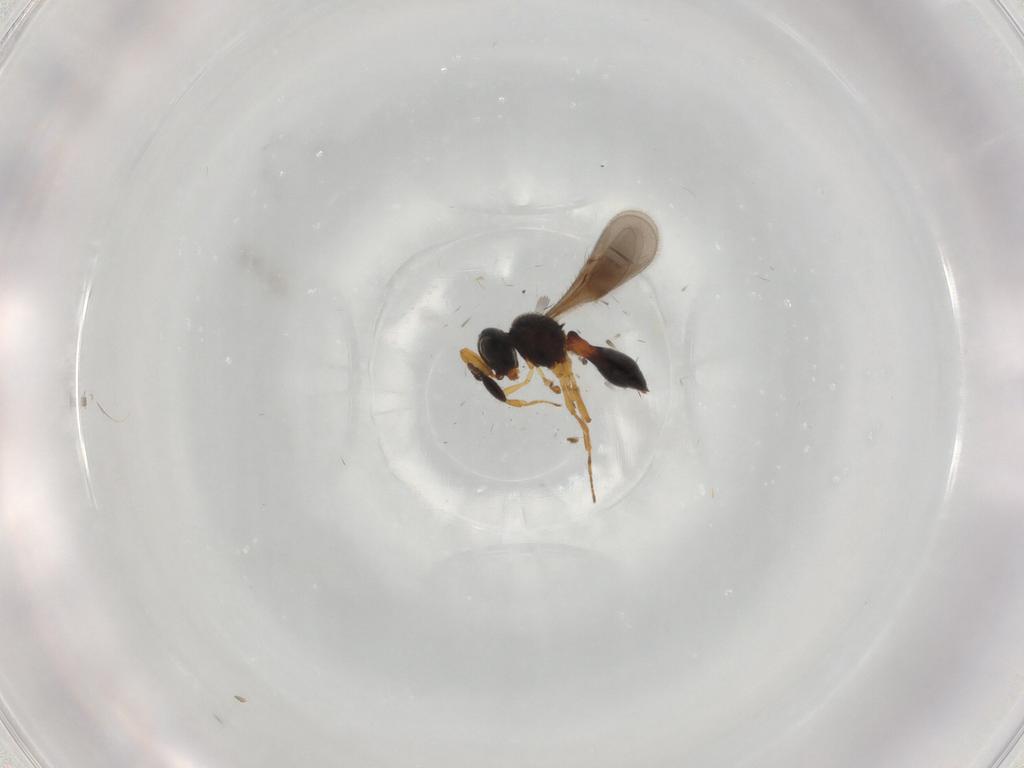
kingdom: Animalia
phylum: Arthropoda
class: Insecta
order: Hymenoptera
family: Scelionidae
